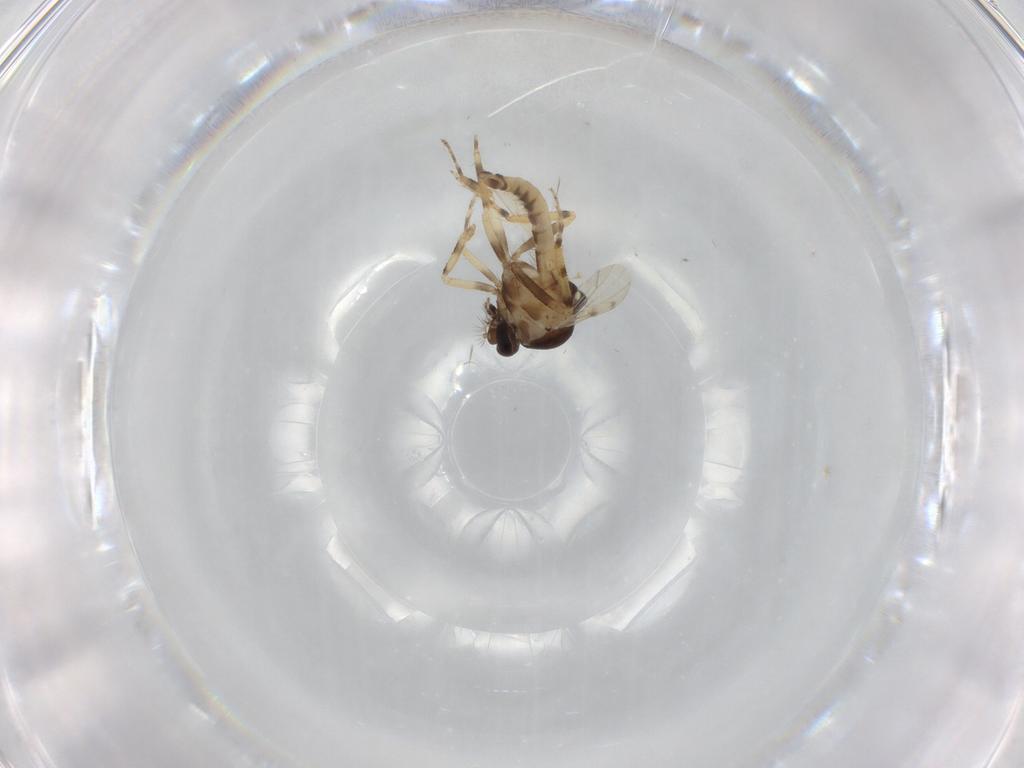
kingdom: Animalia
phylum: Arthropoda
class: Insecta
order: Diptera
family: Ceratopogonidae
